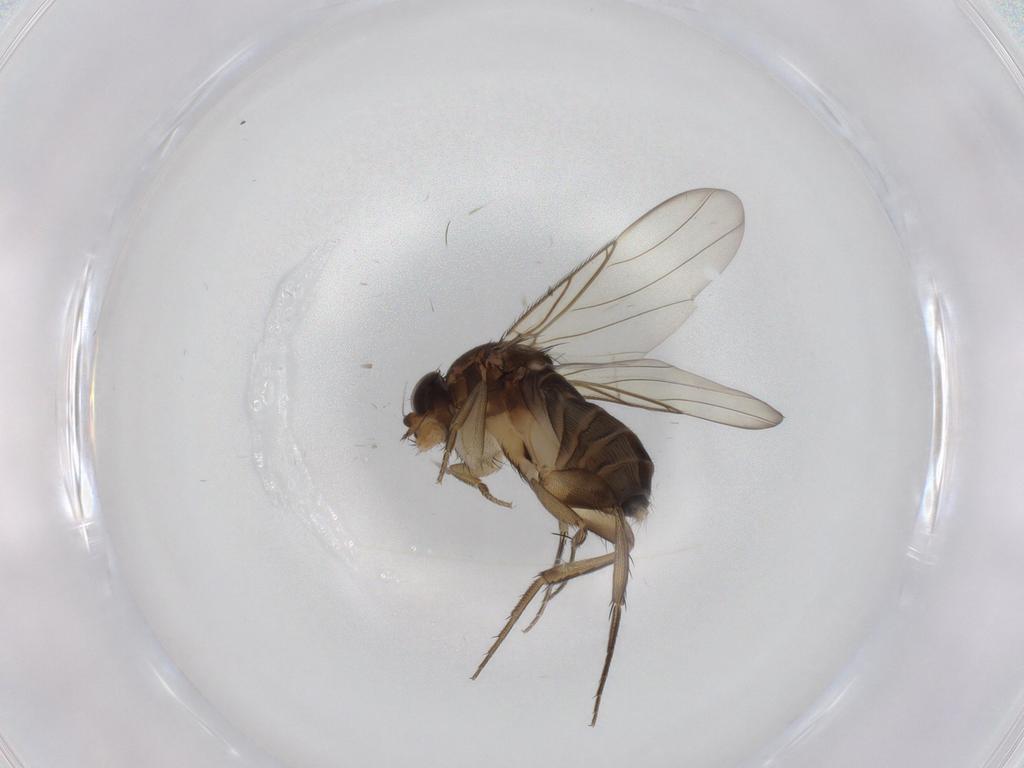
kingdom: Animalia
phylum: Arthropoda
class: Insecta
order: Diptera
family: Phoridae
